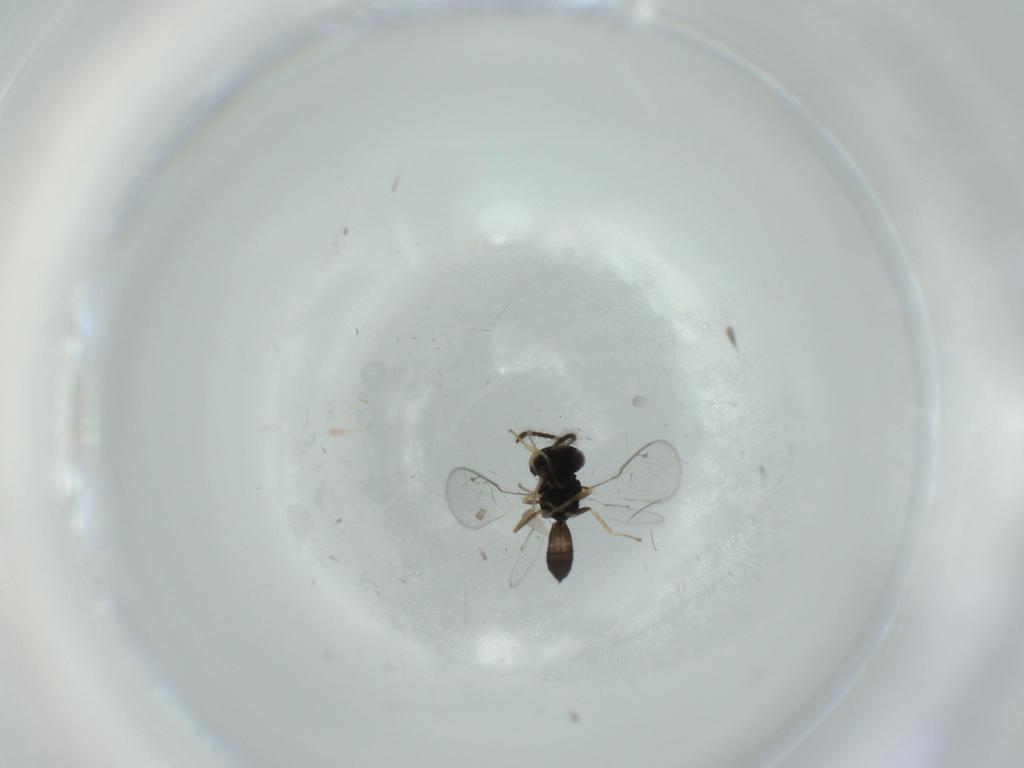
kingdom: Animalia
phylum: Arthropoda
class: Insecta
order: Hymenoptera
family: Pteromalidae
